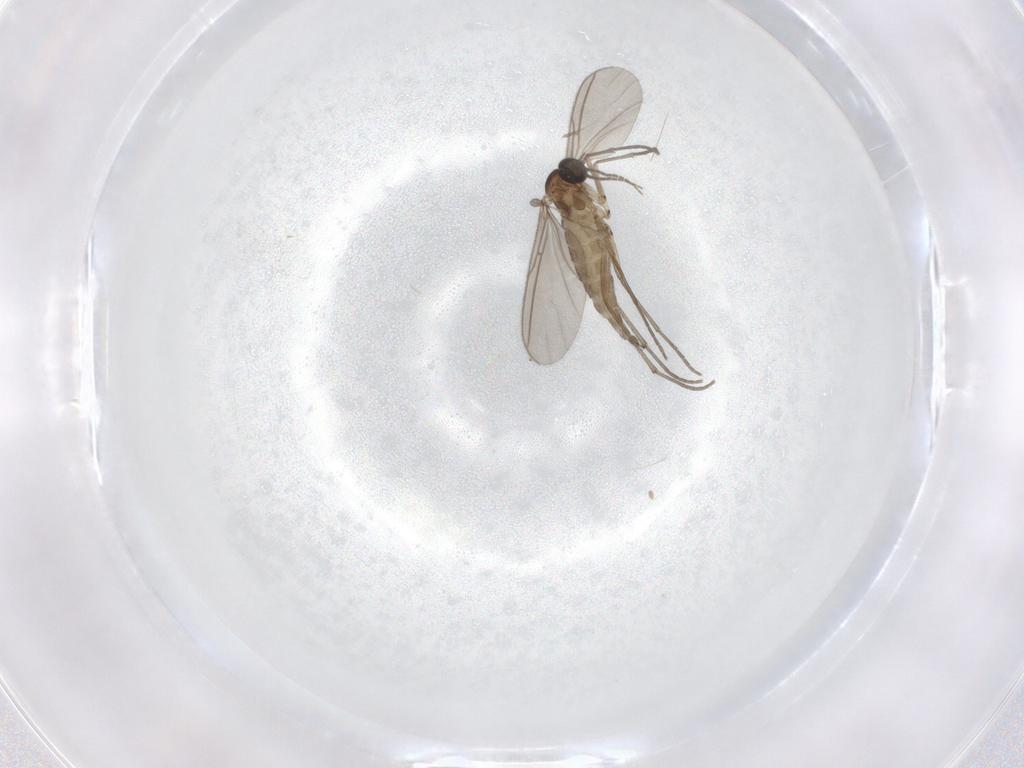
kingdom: Animalia
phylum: Arthropoda
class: Insecta
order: Diptera
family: Sciaridae
